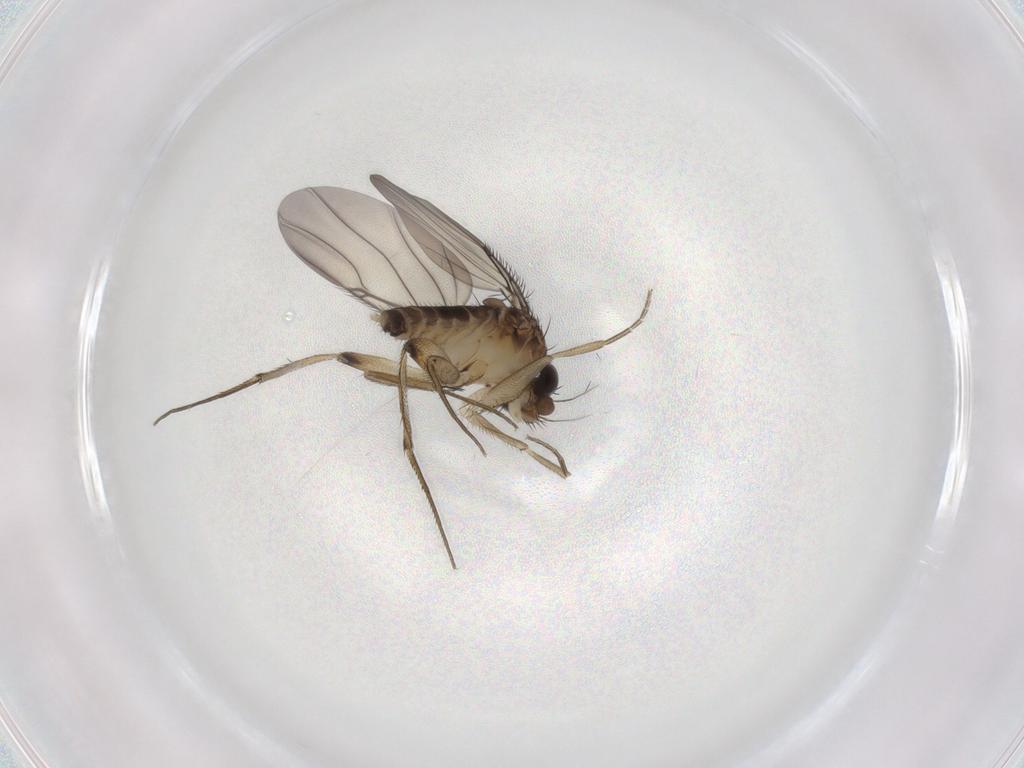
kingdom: Animalia
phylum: Arthropoda
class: Insecta
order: Diptera
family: Phoridae
